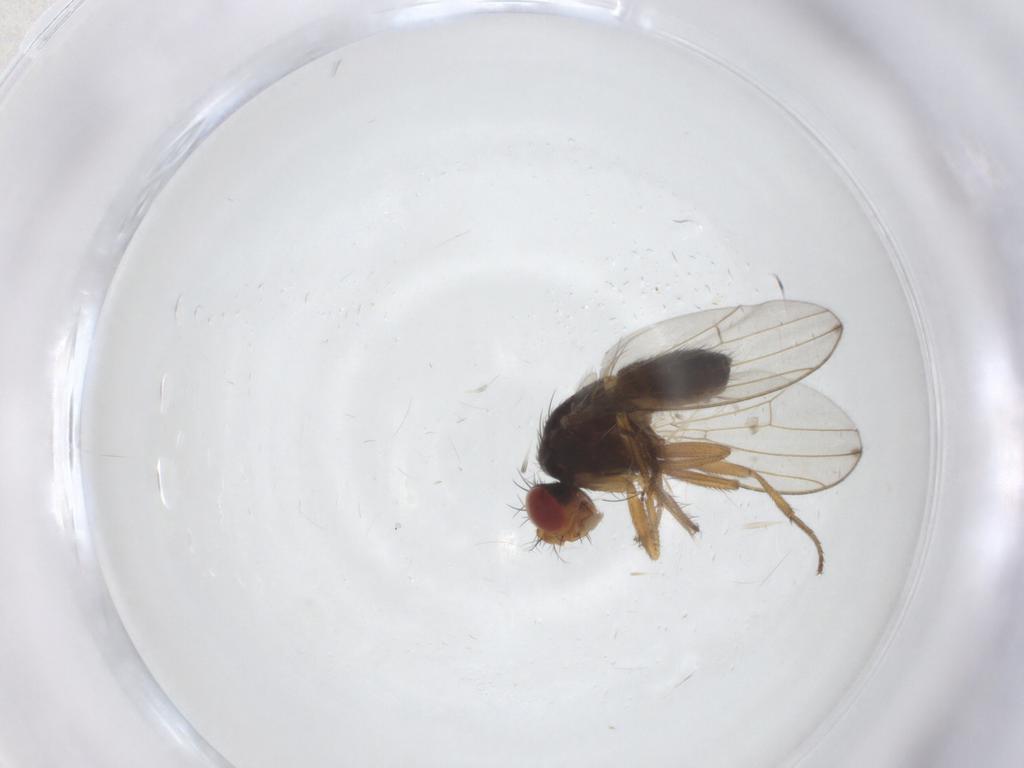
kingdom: Animalia
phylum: Arthropoda
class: Insecta
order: Diptera
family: Drosophilidae
